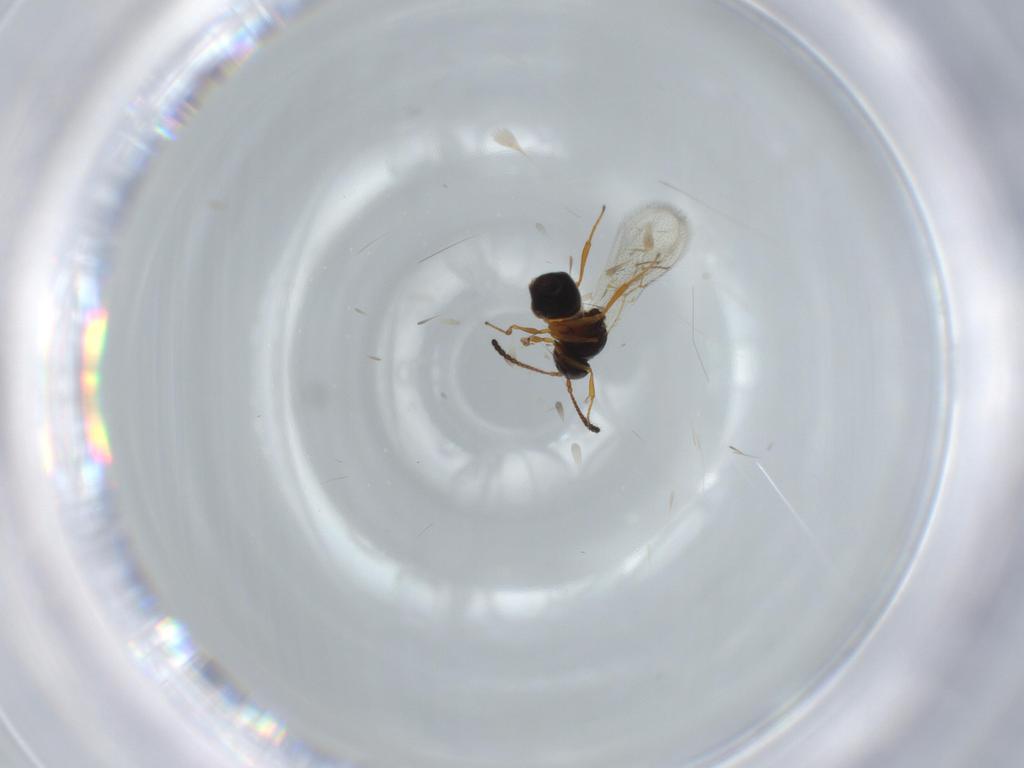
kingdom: Animalia
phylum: Arthropoda
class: Insecta
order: Hymenoptera
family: Figitidae
